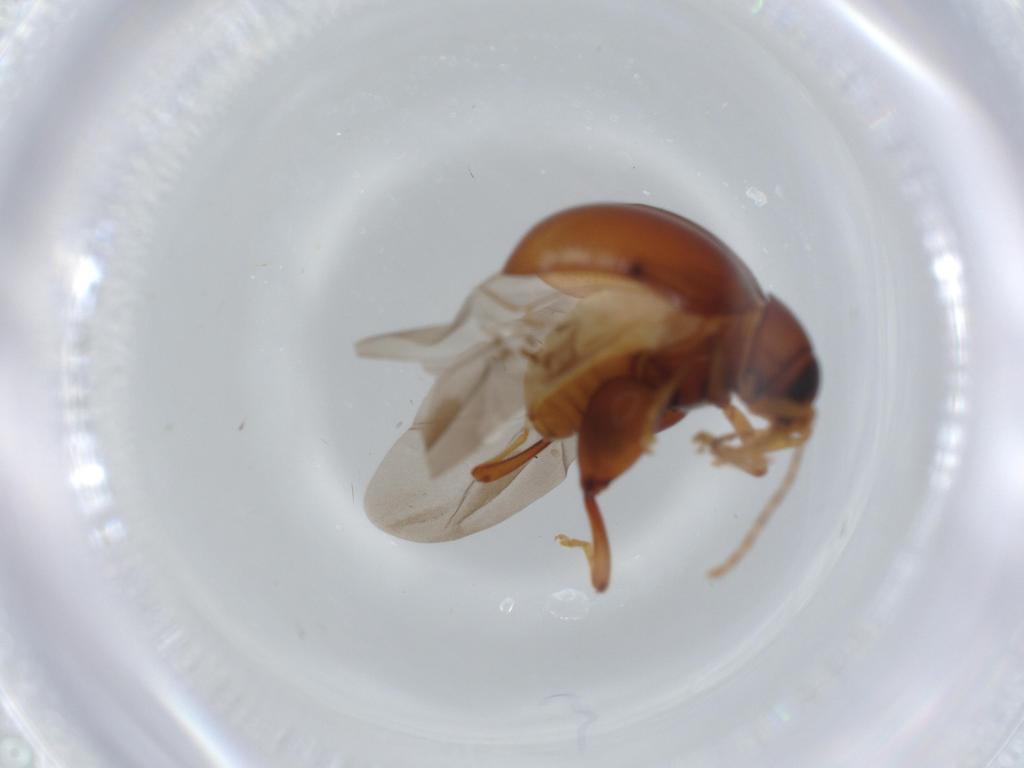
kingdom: Animalia
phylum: Arthropoda
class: Insecta
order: Coleoptera
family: Chrysomelidae
